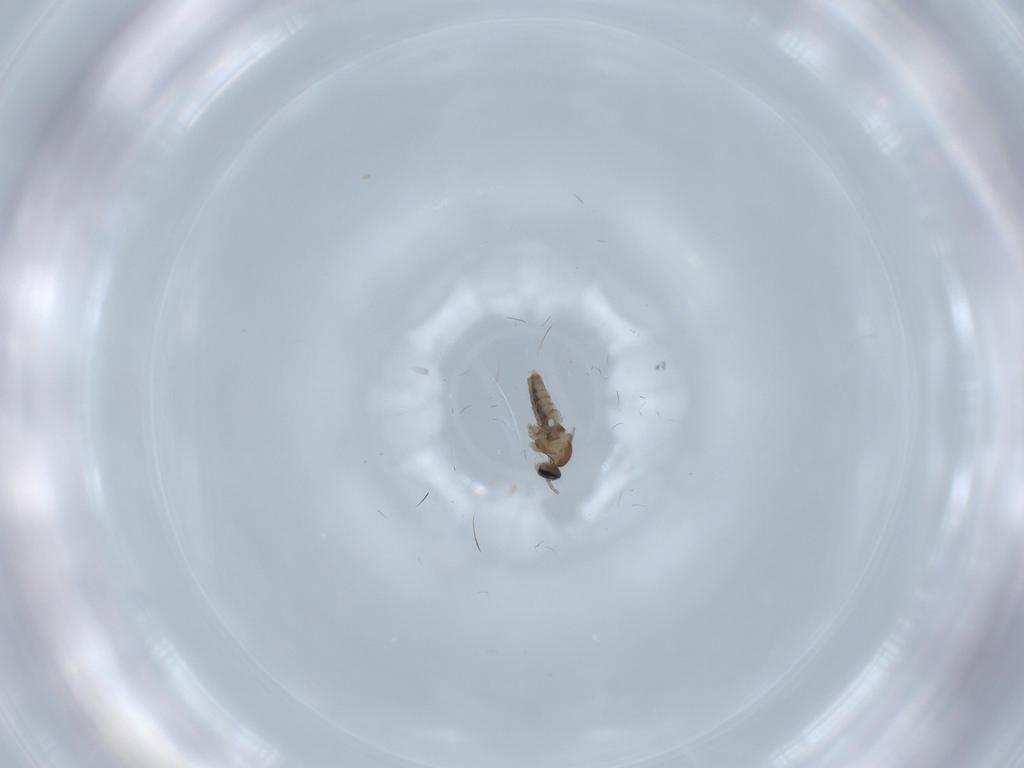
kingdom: Animalia
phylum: Arthropoda
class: Insecta
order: Diptera
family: Cecidomyiidae
